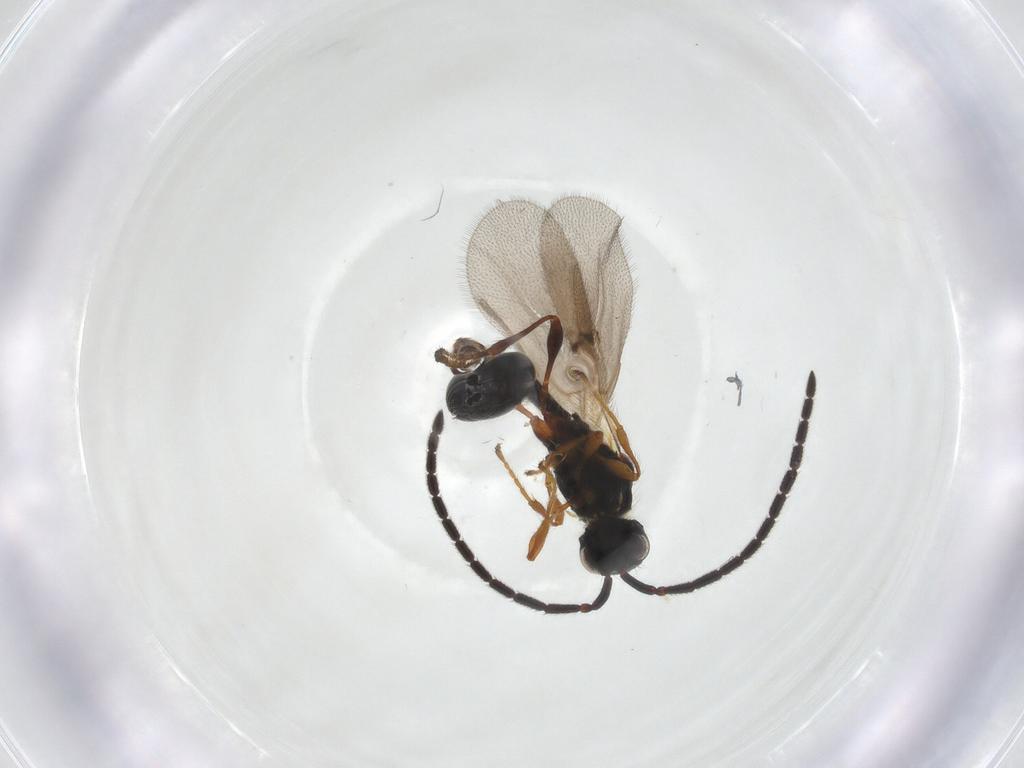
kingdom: Animalia
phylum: Arthropoda
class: Insecta
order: Hymenoptera
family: Diapriidae
